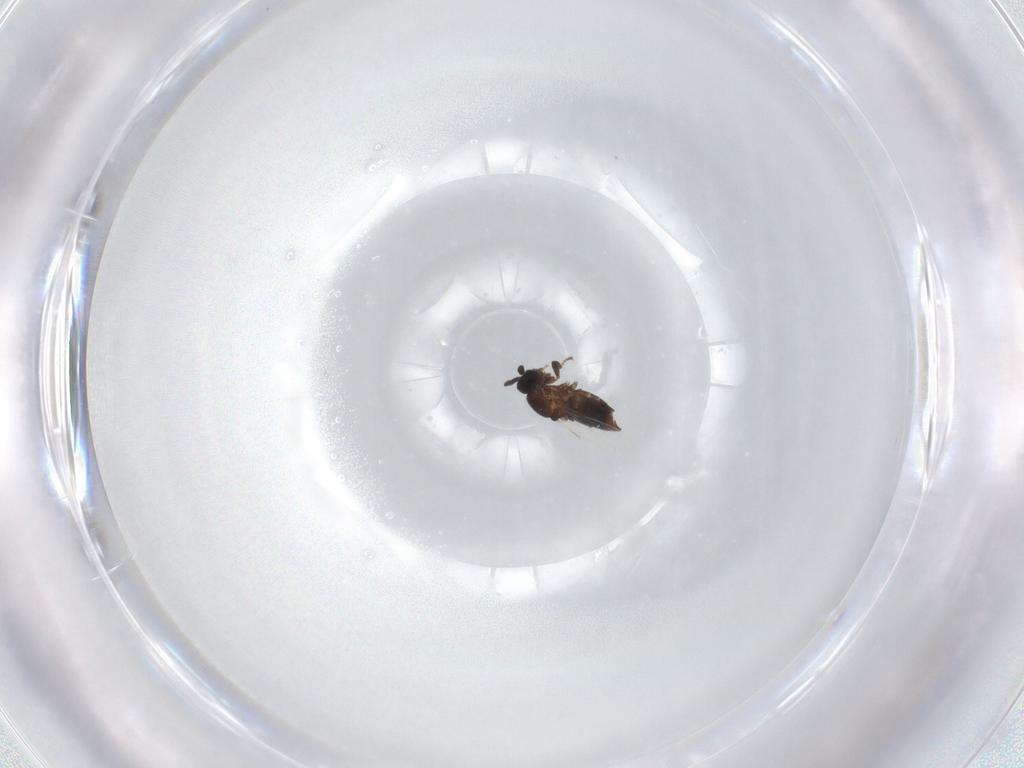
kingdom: Animalia
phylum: Arthropoda
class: Insecta
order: Diptera
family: Scatopsidae
